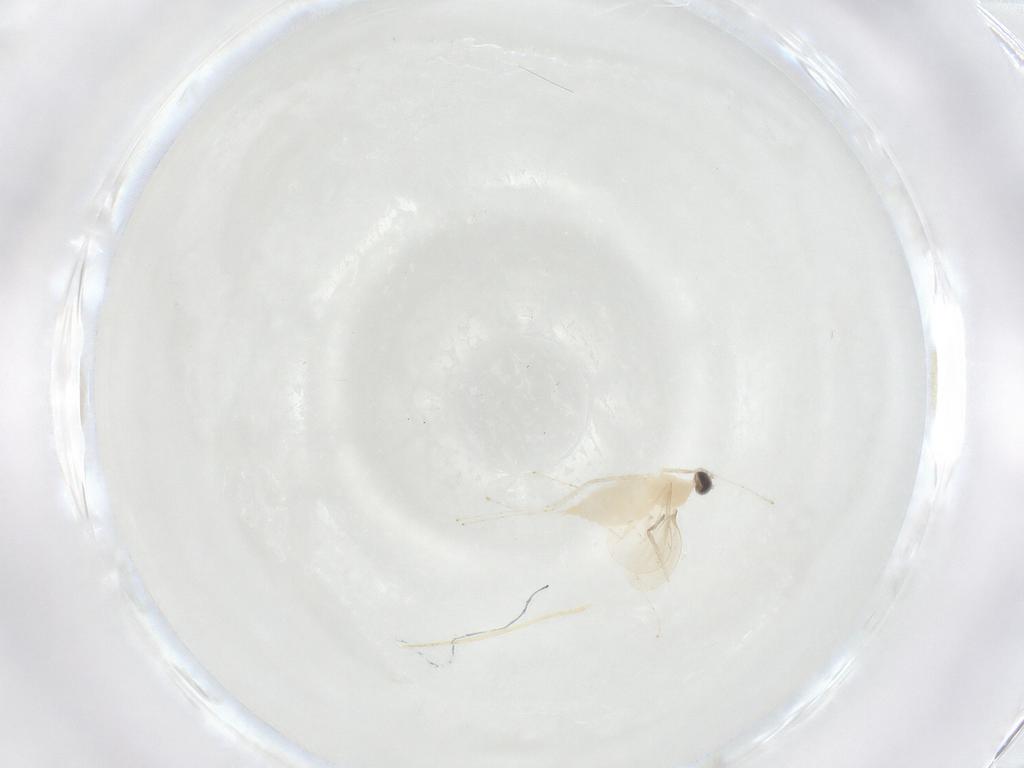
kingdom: Animalia
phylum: Arthropoda
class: Insecta
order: Diptera
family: Cecidomyiidae
